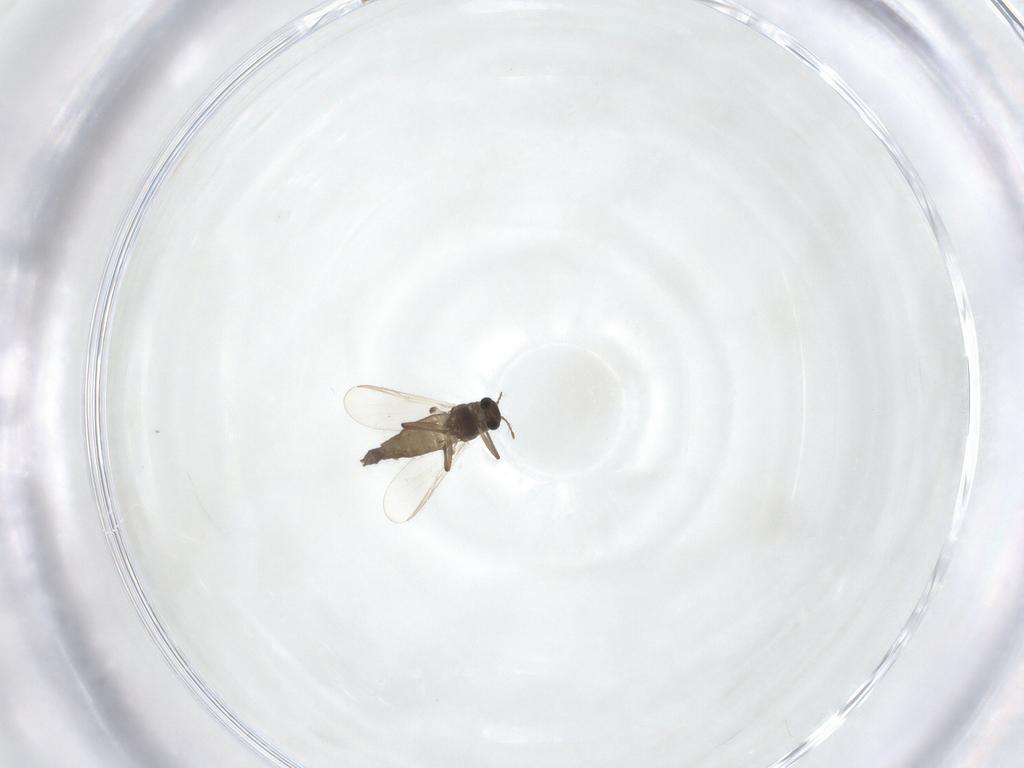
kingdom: Animalia
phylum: Arthropoda
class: Insecta
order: Diptera
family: Chironomidae
